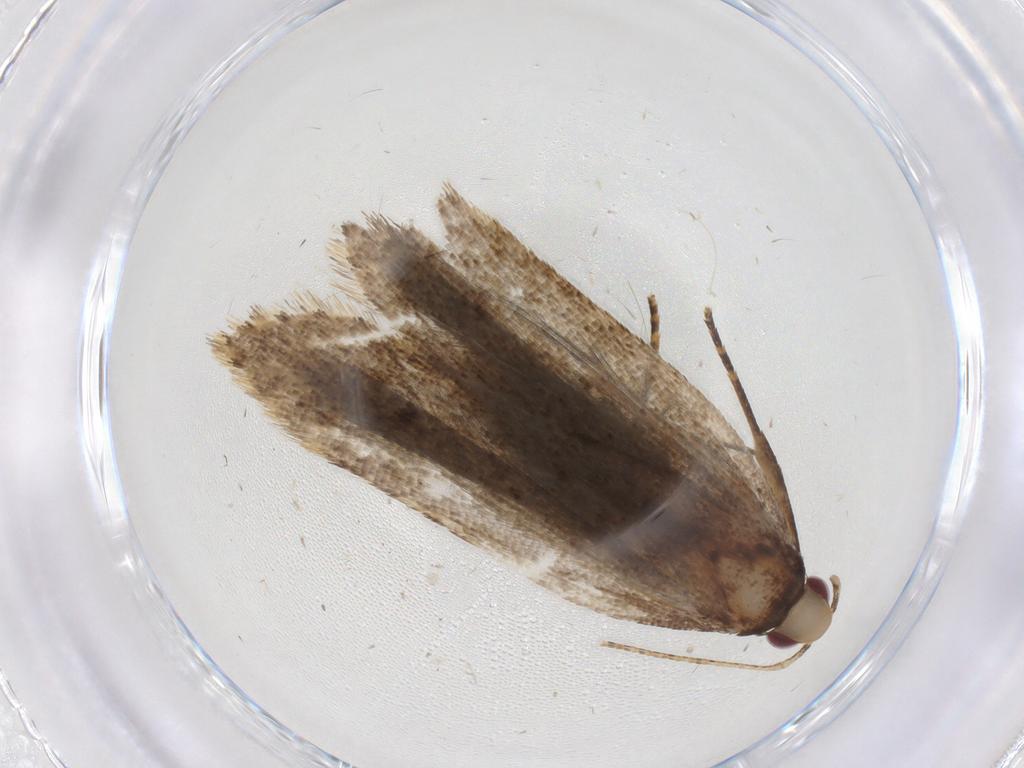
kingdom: Animalia
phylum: Arthropoda
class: Insecta
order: Lepidoptera
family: Gelechiidae
